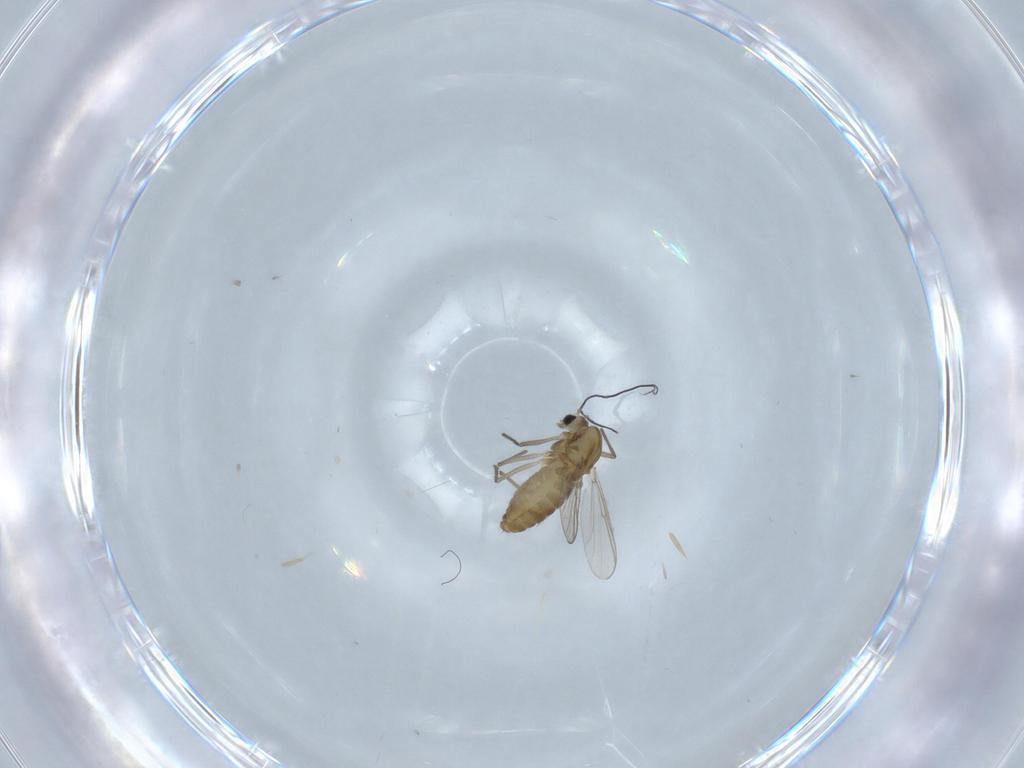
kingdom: Animalia
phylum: Arthropoda
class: Insecta
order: Diptera
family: Chironomidae
